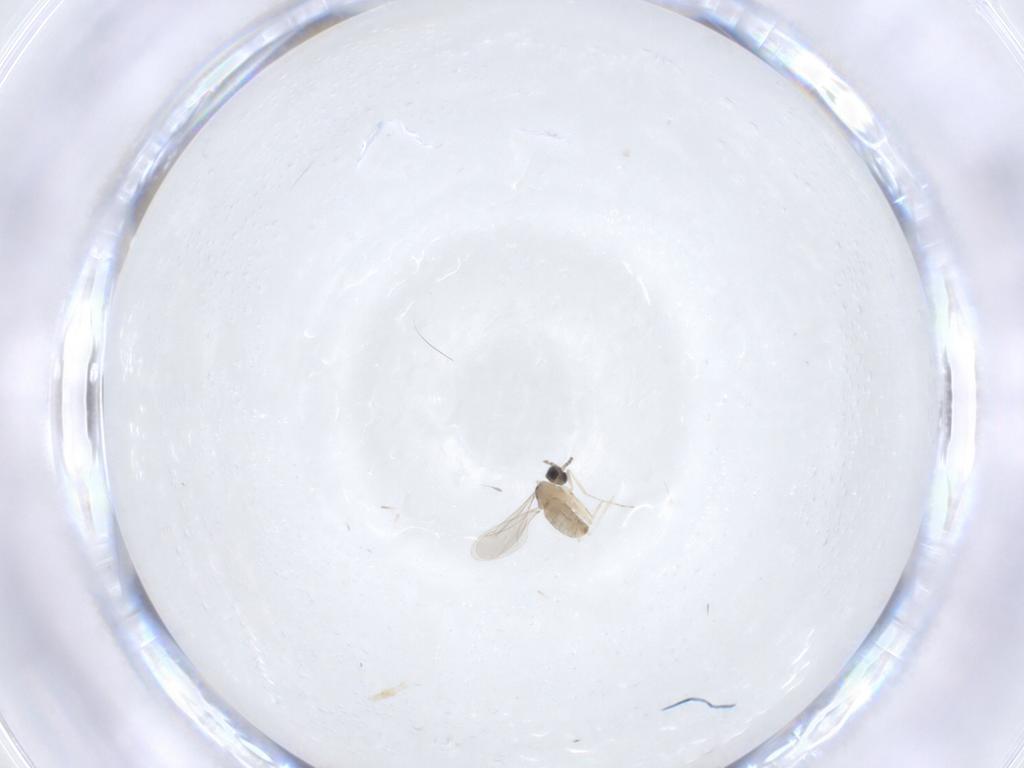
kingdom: Animalia
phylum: Arthropoda
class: Insecta
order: Diptera
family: Cecidomyiidae
